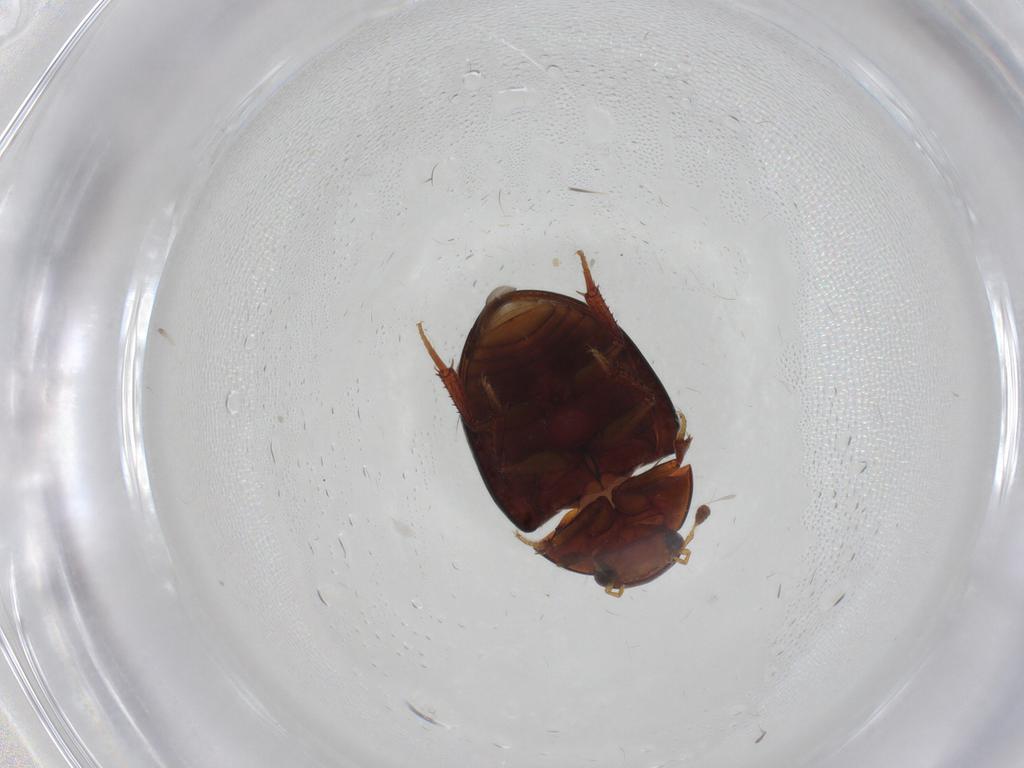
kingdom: Animalia
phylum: Arthropoda
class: Insecta
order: Coleoptera
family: Hydrophilidae
